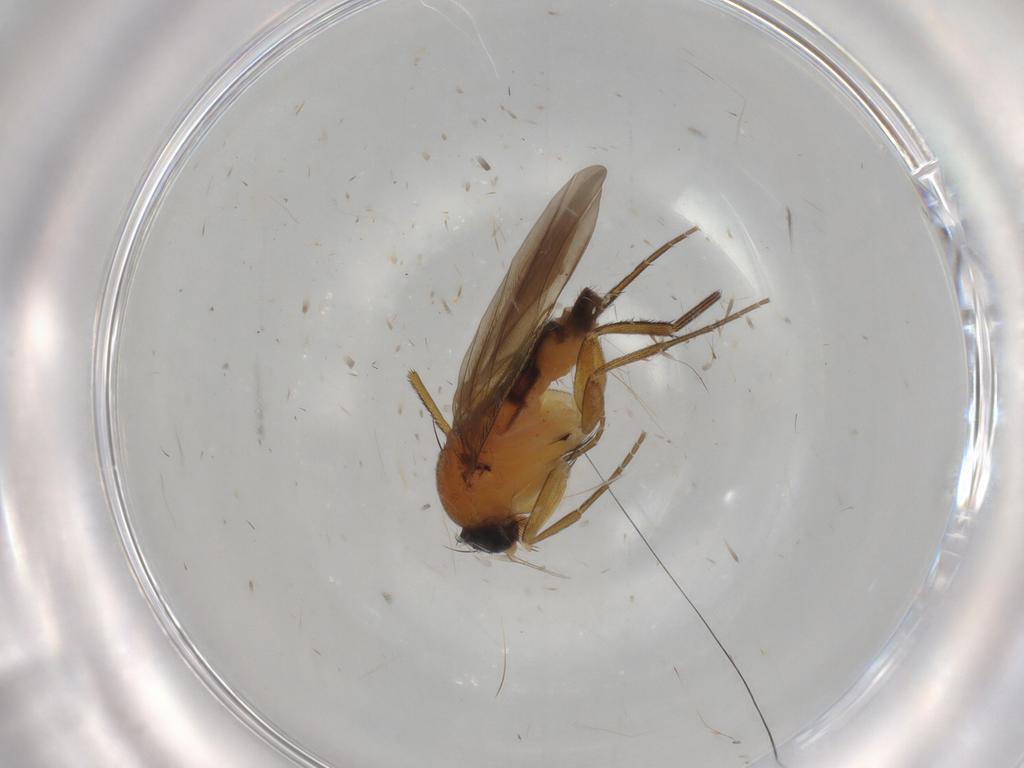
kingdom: Animalia
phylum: Arthropoda
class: Insecta
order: Diptera
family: Phoridae
